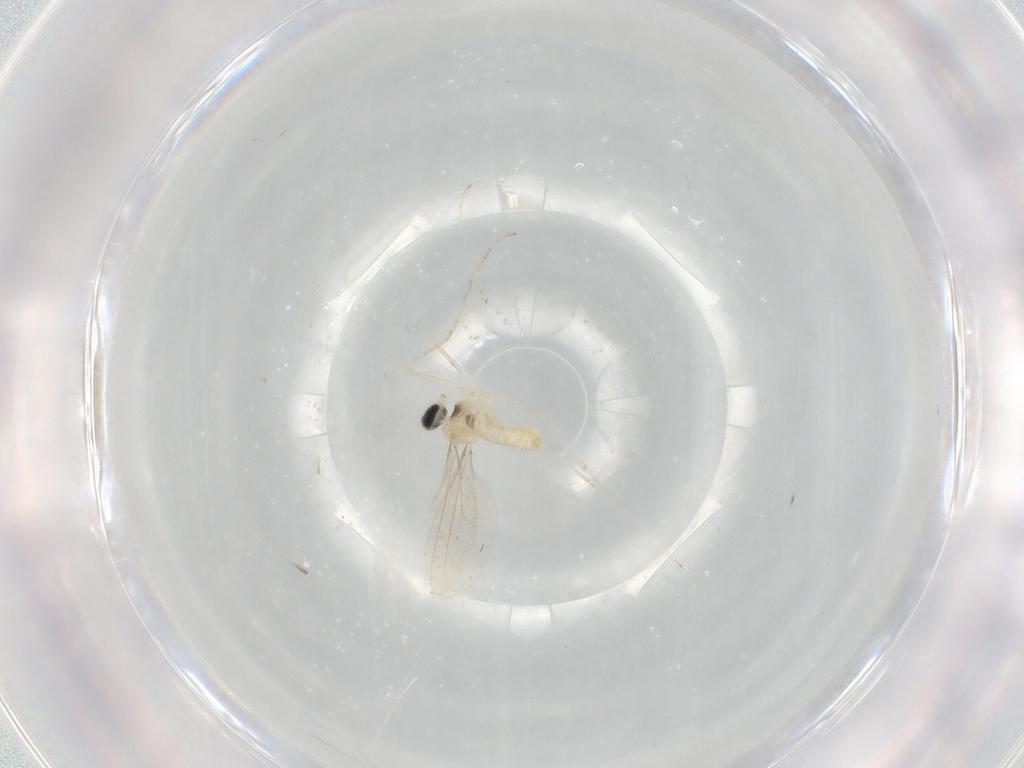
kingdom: Animalia
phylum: Arthropoda
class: Insecta
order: Diptera
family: Cecidomyiidae
